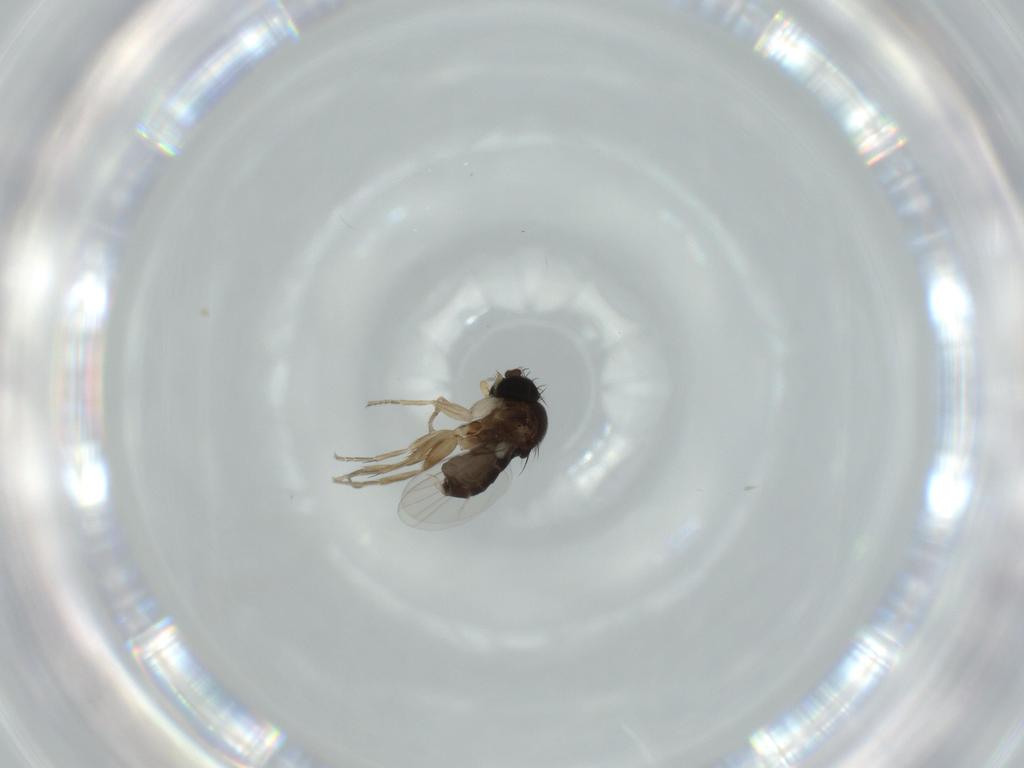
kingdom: Animalia
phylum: Arthropoda
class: Insecta
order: Diptera
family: Phoridae
